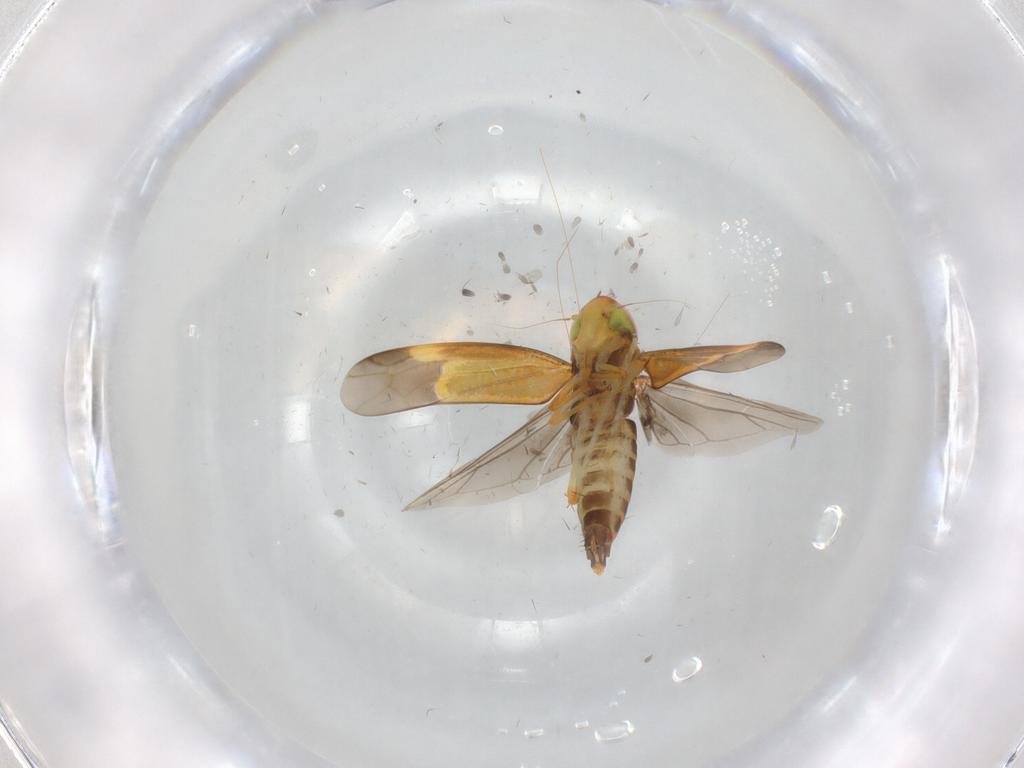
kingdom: Animalia
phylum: Arthropoda
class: Insecta
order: Hemiptera
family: Cicadellidae
